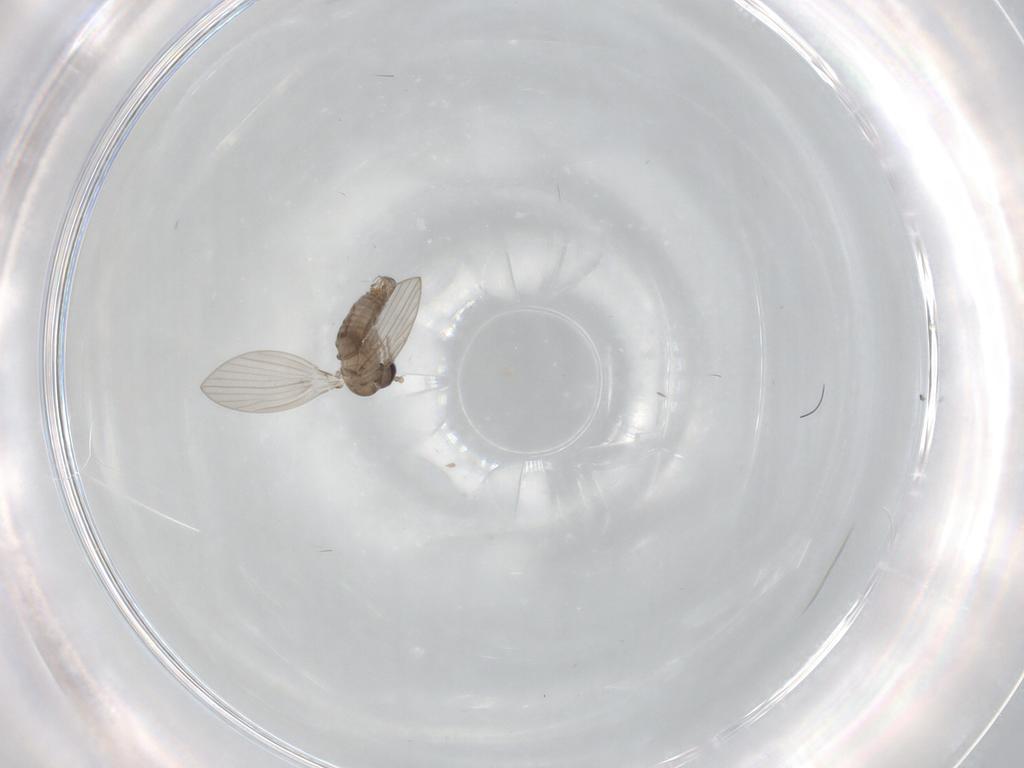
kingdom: Animalia
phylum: Arthropoda
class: Insecta
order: Diptera
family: Psychodidae
